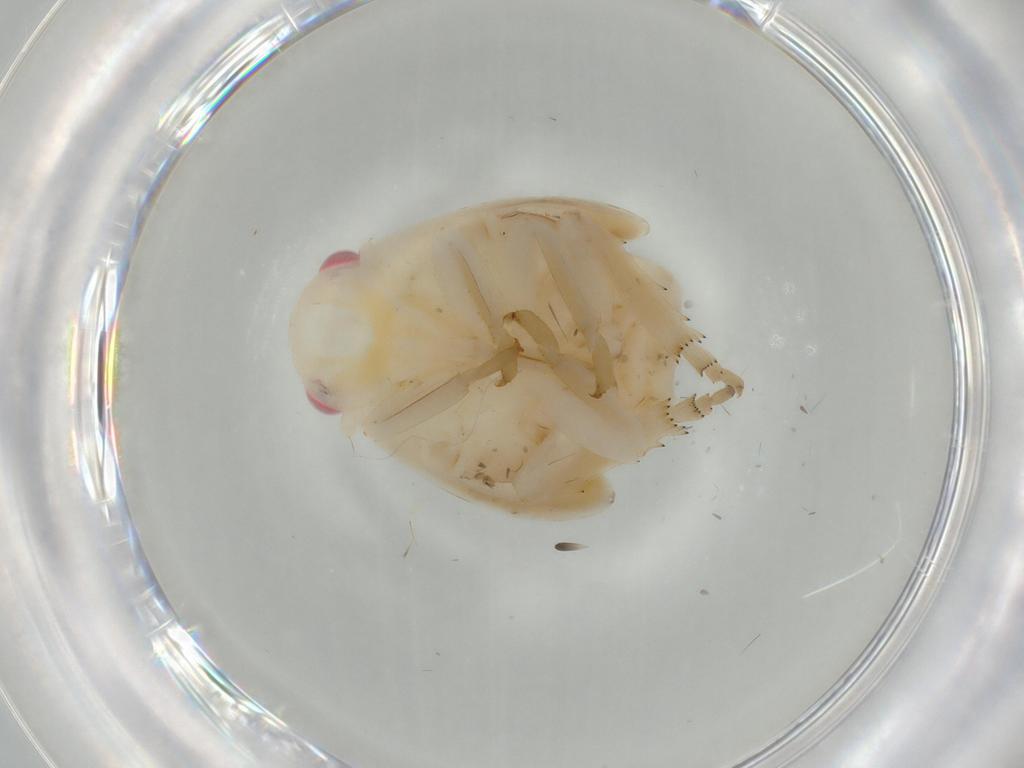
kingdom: Animalia
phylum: Arthropoda
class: Insecta
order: Hemiptera
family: Flatidae
